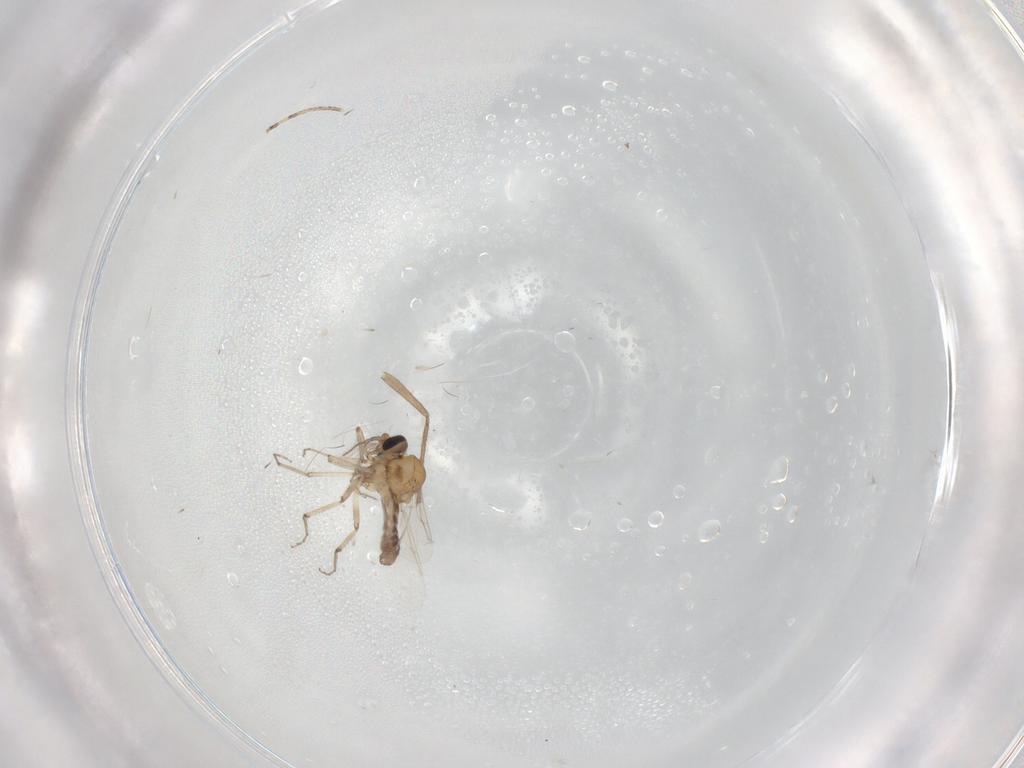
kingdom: Animalia
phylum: Arthropoda
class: Insecta
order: Diptera
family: Ceratopogonidae
